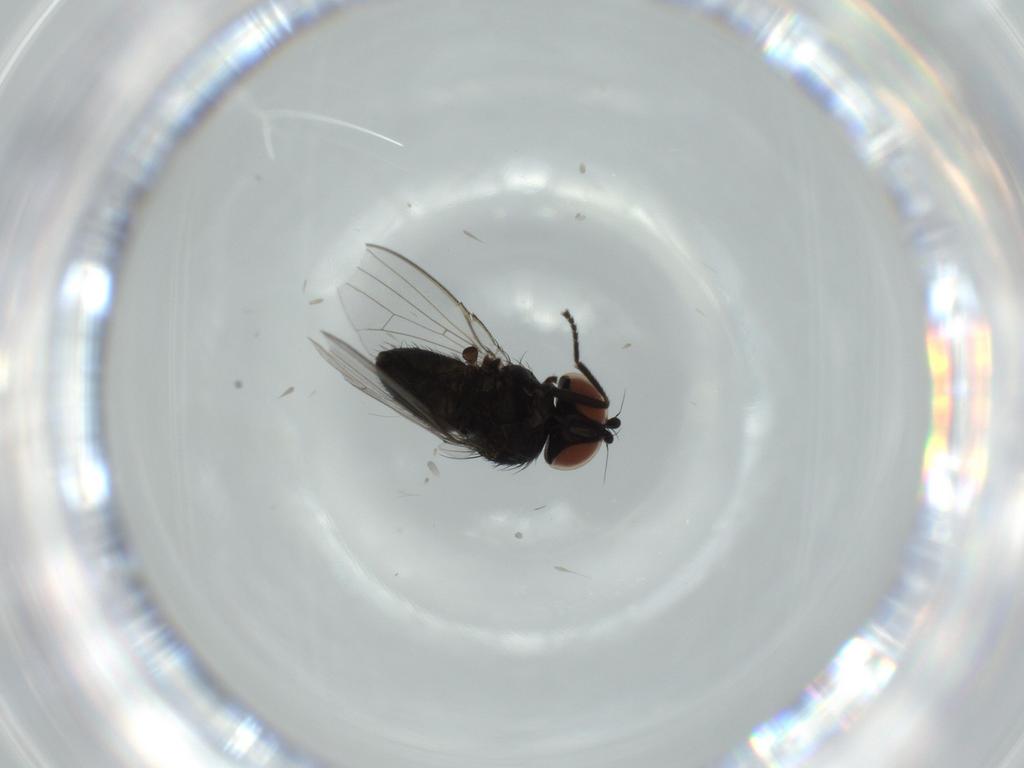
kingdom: Animalia
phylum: Arthropoda
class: Insecta
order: Diptera
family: Milichiidae
